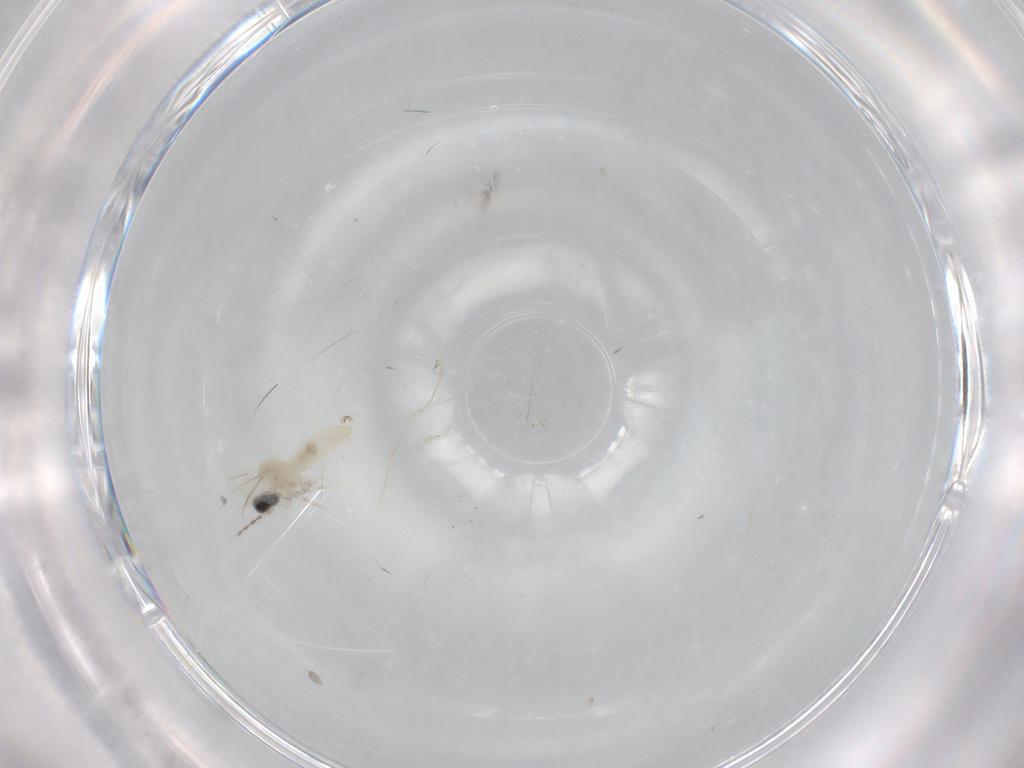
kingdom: Animalia
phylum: Arthropoda
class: Insecta
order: Diptera
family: Cecidomyiidae
